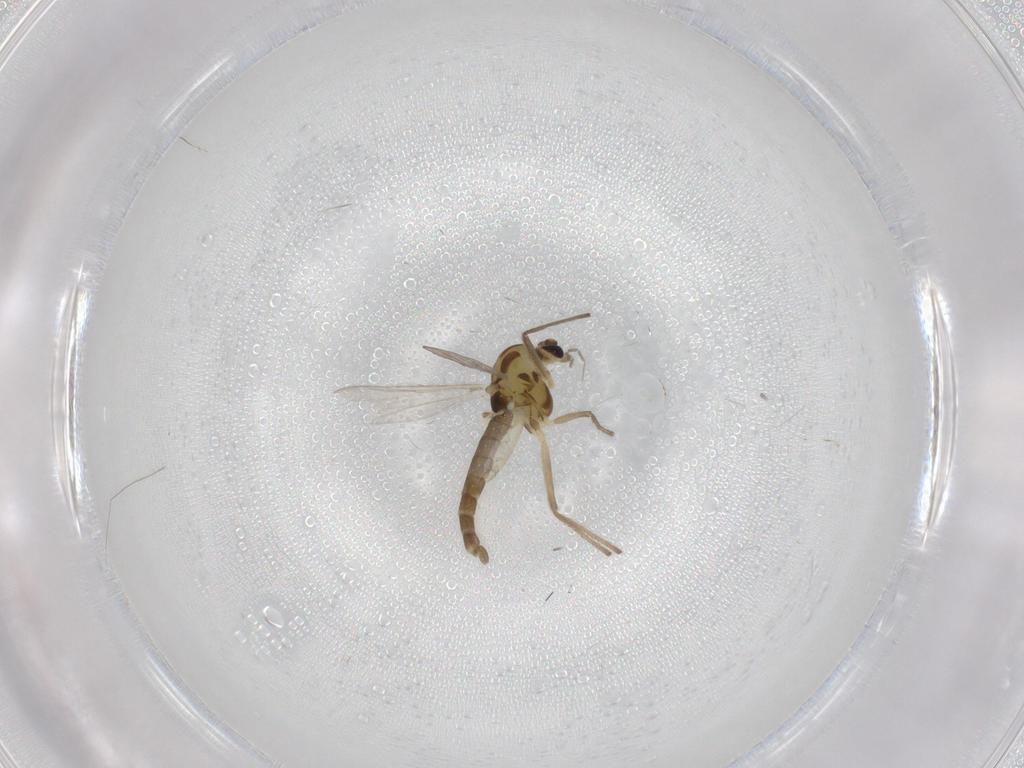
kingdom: Animalia
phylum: Arthropoda
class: Insecta
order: Diptera
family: Chironomidae
